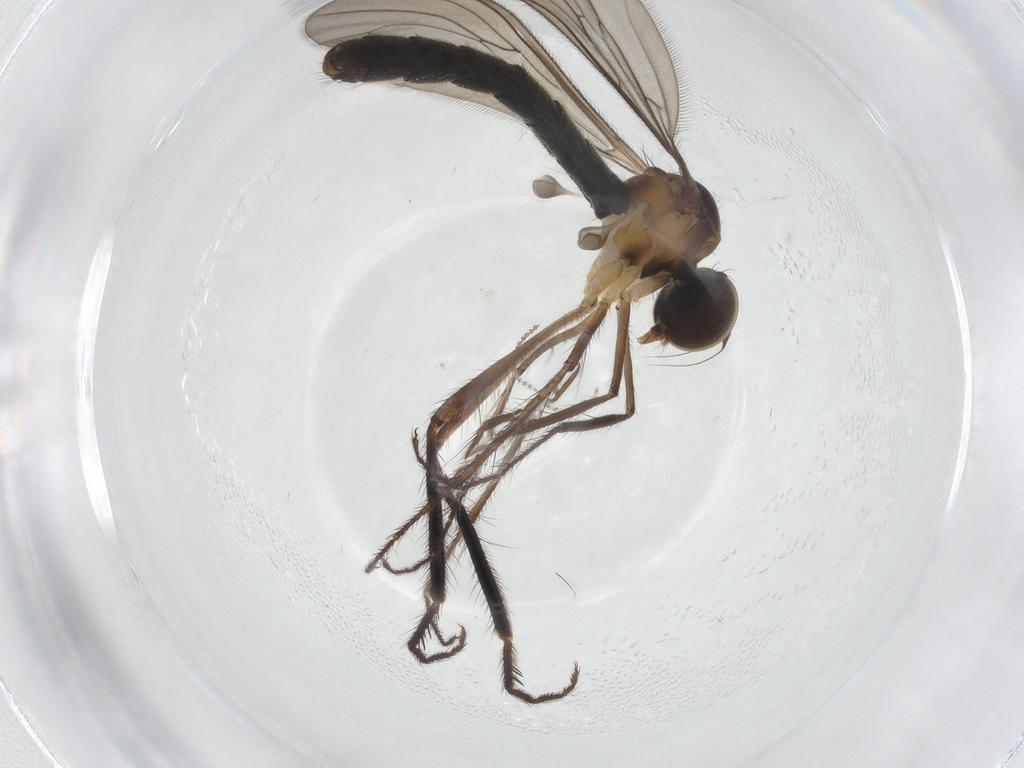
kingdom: Animalia
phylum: Arthropoda
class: Insecta
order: Diptera
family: Hybotidae
